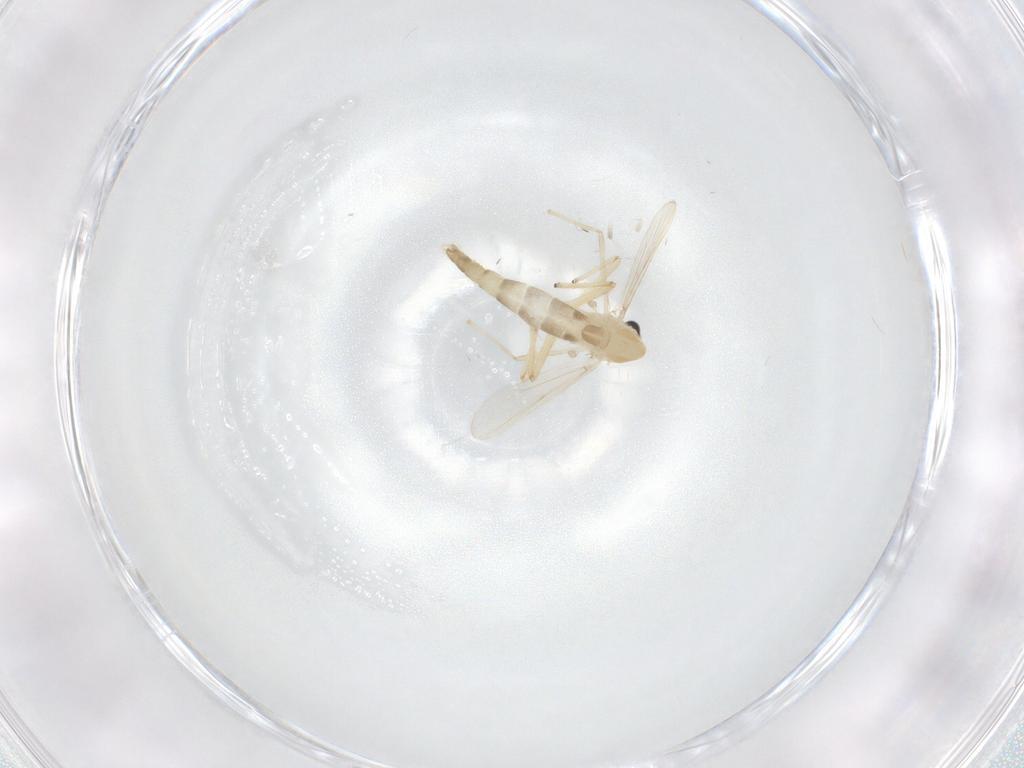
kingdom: Animalia
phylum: Arthropoda
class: Insecta
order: Diptera
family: Chironomidae
